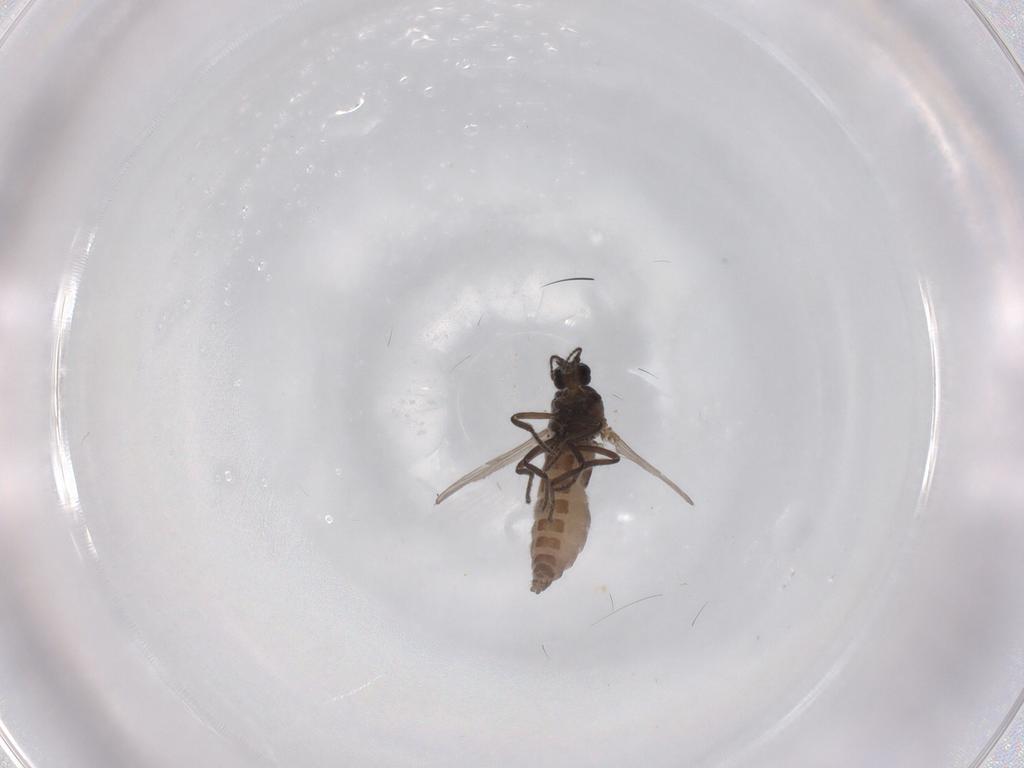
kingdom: Animalia
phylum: Arthropoda
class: Insecta
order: Diptera
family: Ceratopogonidae
